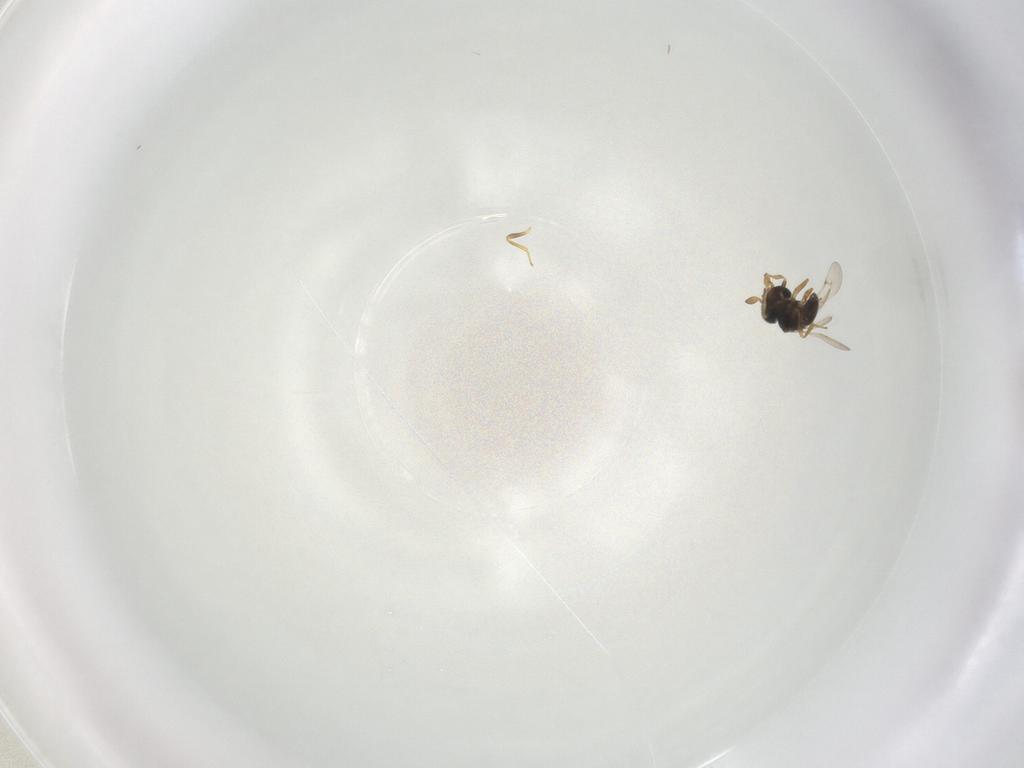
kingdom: Animalia
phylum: Arthropoda
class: Insecta
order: Hymenoptera
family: Scelionidae
